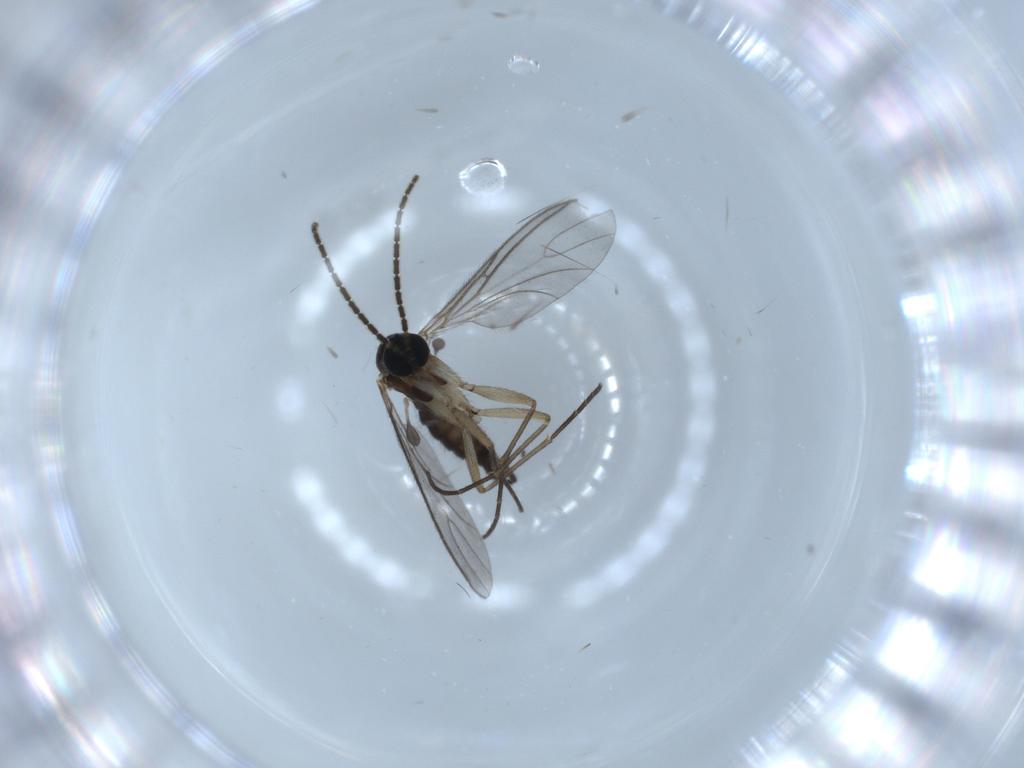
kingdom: Animalia
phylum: Arthropoda
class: Insecta
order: Diptera
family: Sciaridae
